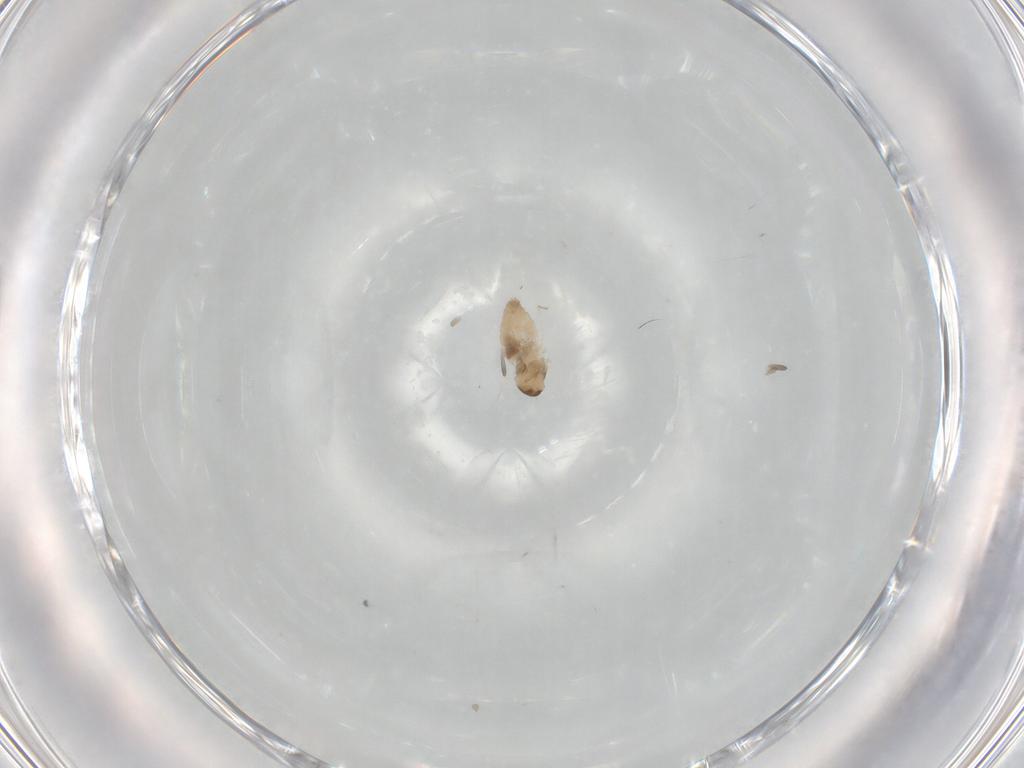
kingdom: Animalia
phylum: Arthropoda
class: Insecta
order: Diptera
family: Cecidomyiidae
